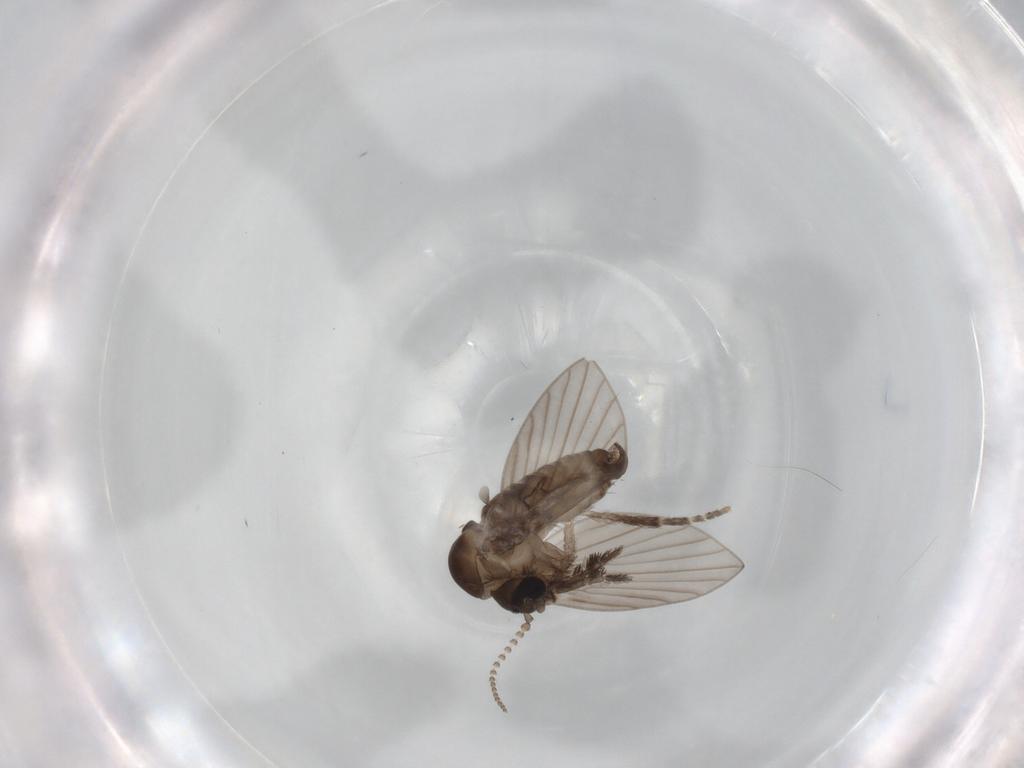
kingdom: Animalia
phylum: Arthropoda
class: Insecta
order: Diptera
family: Psychodidae
